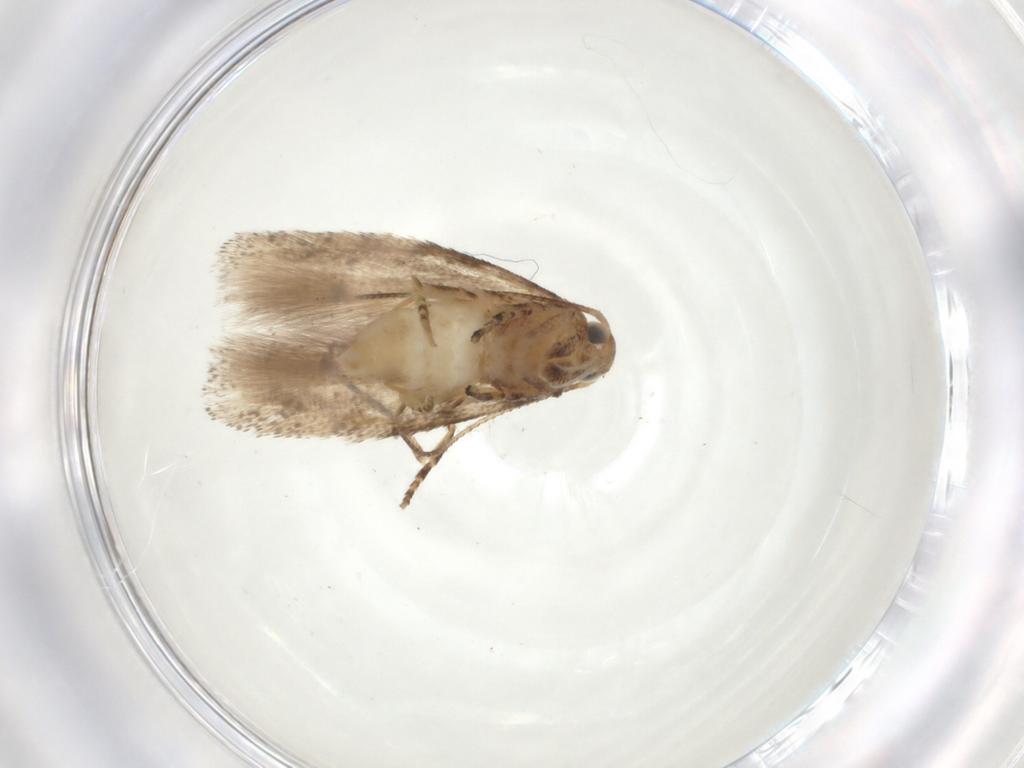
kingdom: Animalia
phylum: Arthropoda
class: Insecta
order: Lepidoptera
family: Gelechiidae
